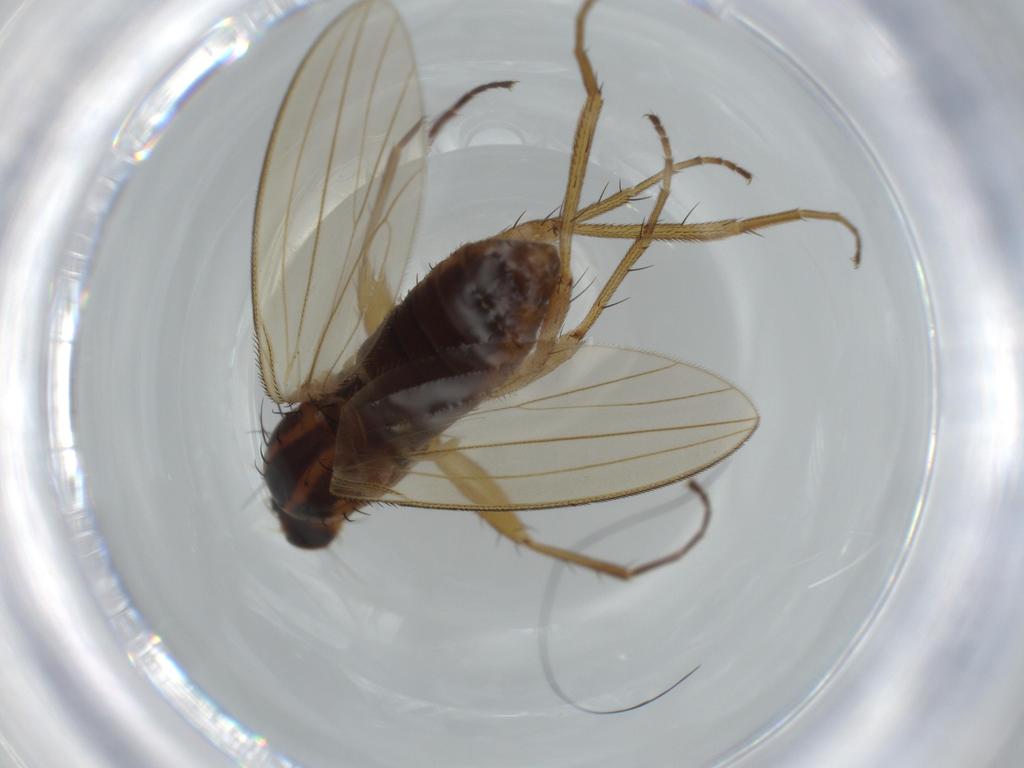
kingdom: Animalia
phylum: Arthropoda
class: Insecta
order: Diptera
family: Lonchopteridae
